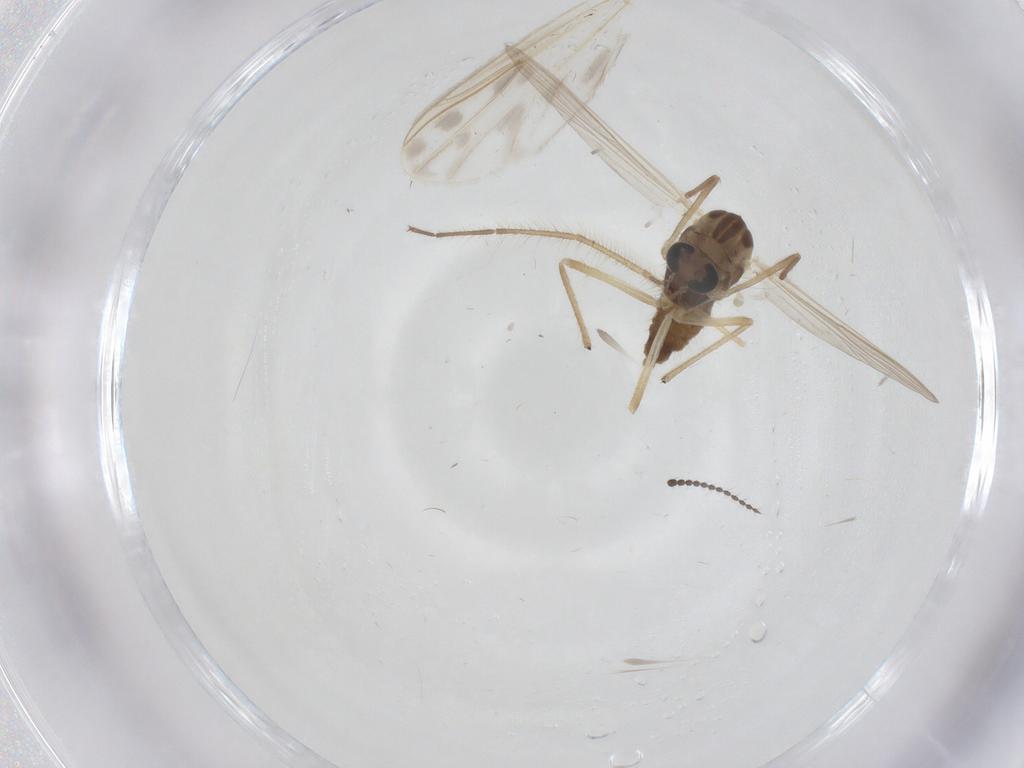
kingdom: Animalia
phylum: Arthropoda
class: Insecta
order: Diptera
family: Chironomidae
